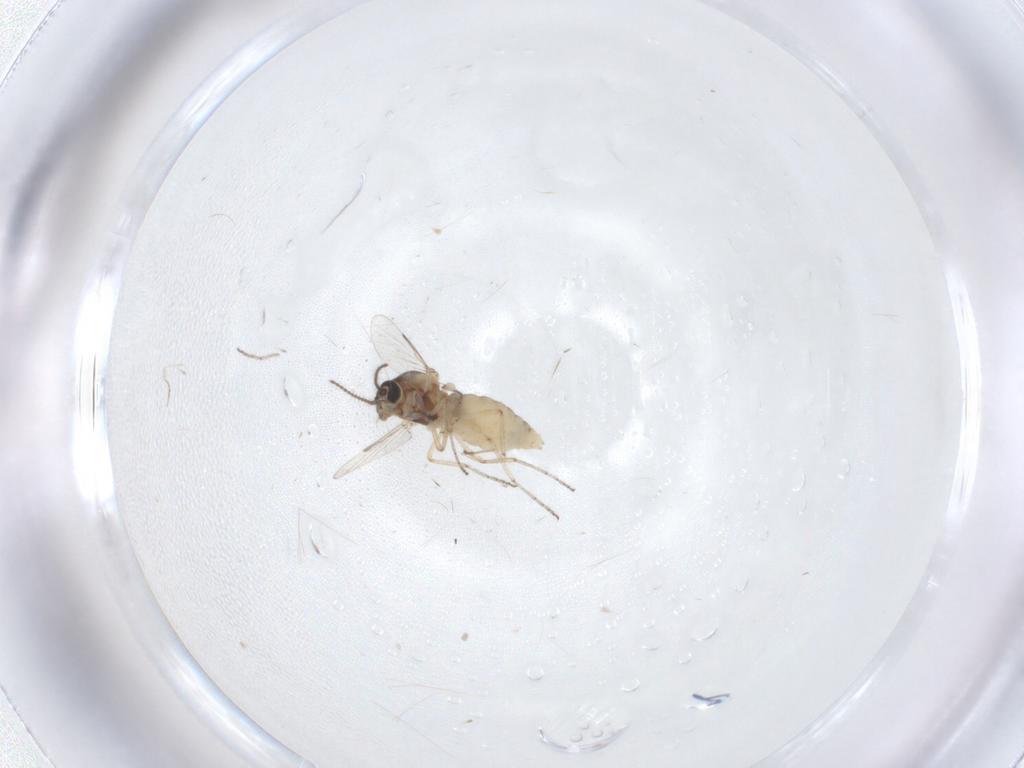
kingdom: Animalia
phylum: Arthropoda
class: Insecta
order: Diptera
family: Ceratopogonidae
